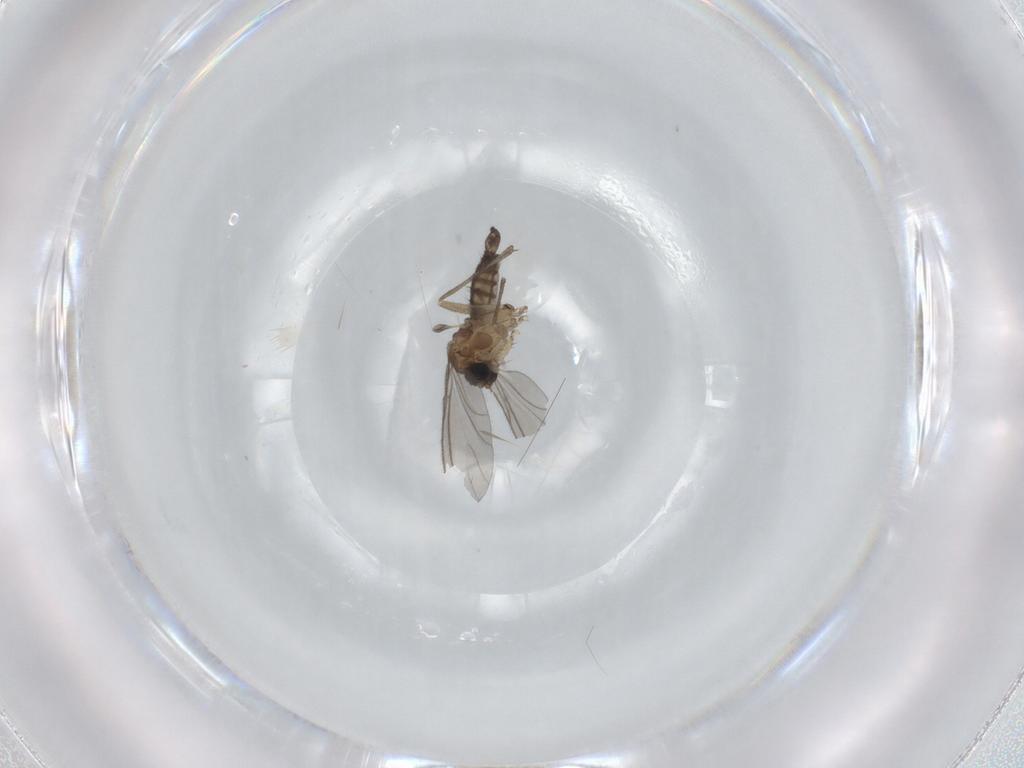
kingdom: Animalia
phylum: Arthropoda
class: Insecta
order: Diptera
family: Sciaridae
